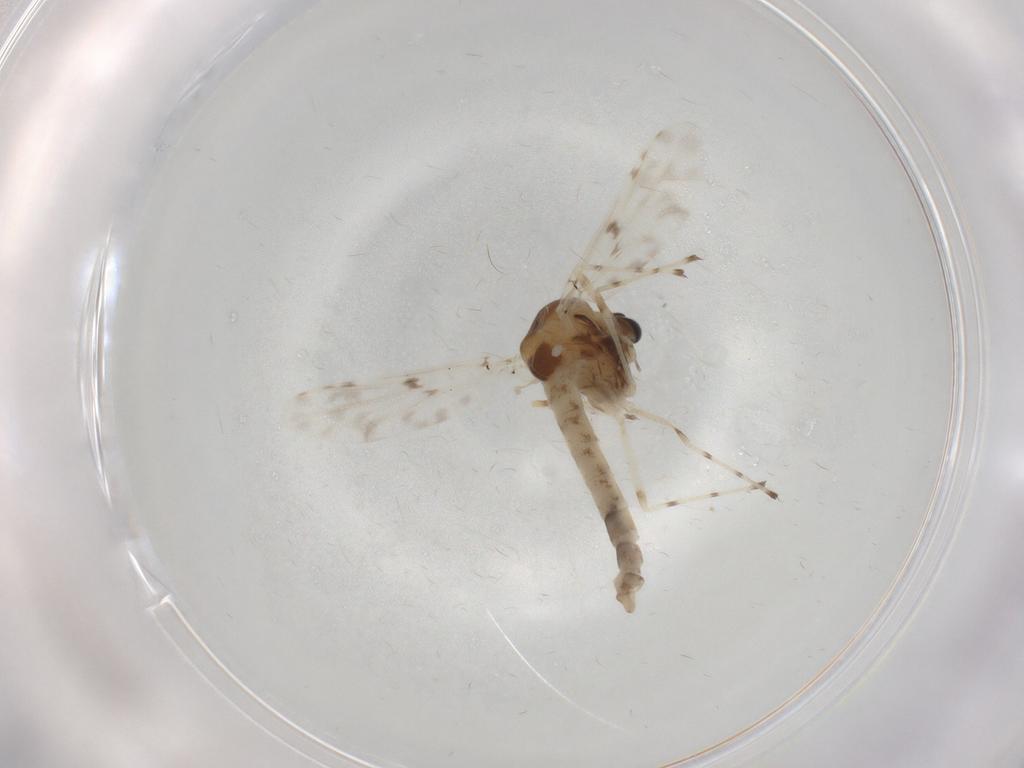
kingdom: Animalia
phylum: Arthropoda
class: Insecta
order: Diptera
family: Chironomidae
